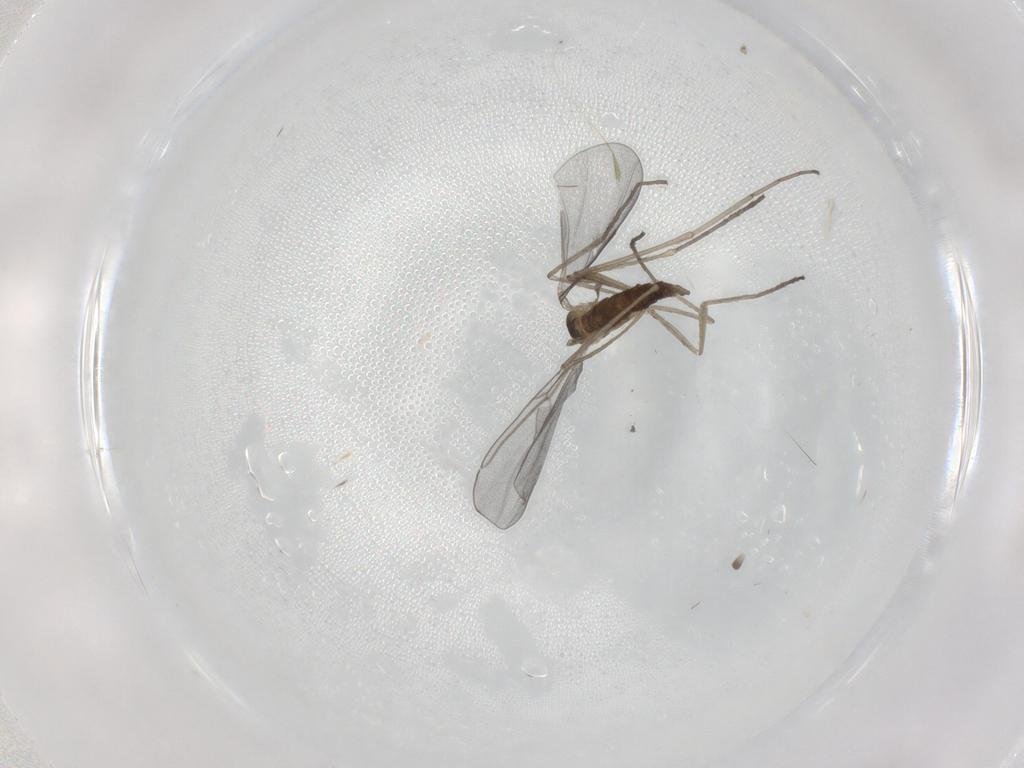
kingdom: Animalia
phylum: Arthropoda
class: Insecta
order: Diptera
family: Cecidomyiidae
